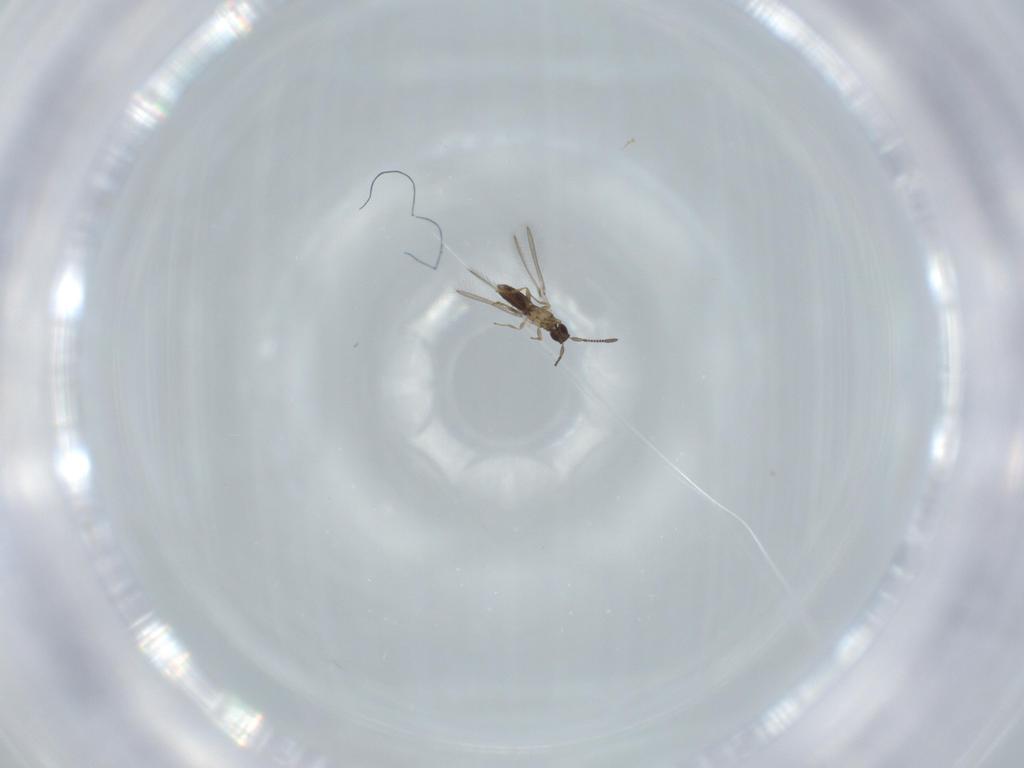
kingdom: Animalia
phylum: Arthropoda
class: Insecta
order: Hymenoptera
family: Mymaridae
